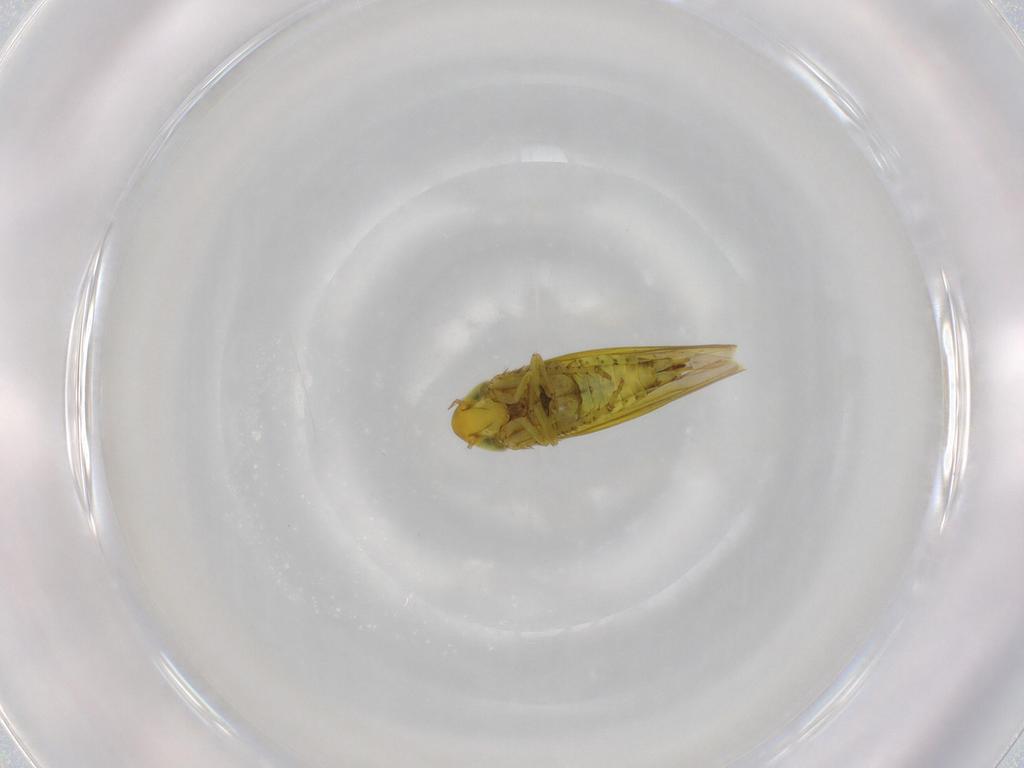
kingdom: Animalia
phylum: Arthropoda
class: Insecta
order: Hemiptera
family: Cicadellidae
